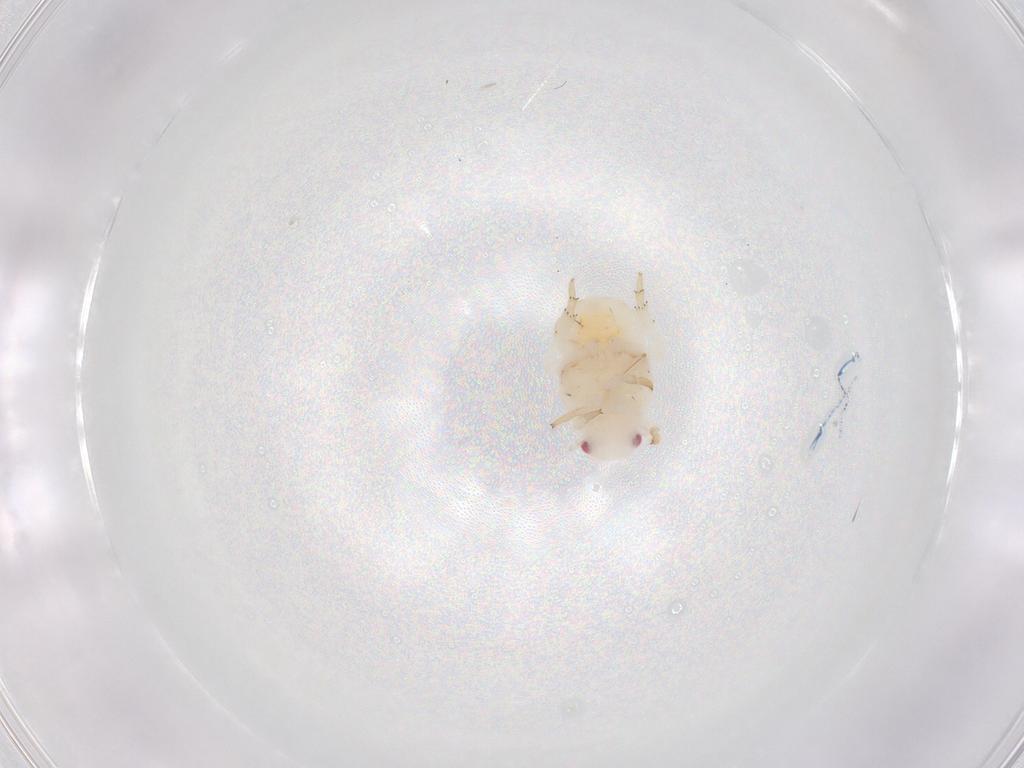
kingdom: Animalia
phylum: Arthropoda
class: Insecta
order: Hemiptera
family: Cicadellidae
